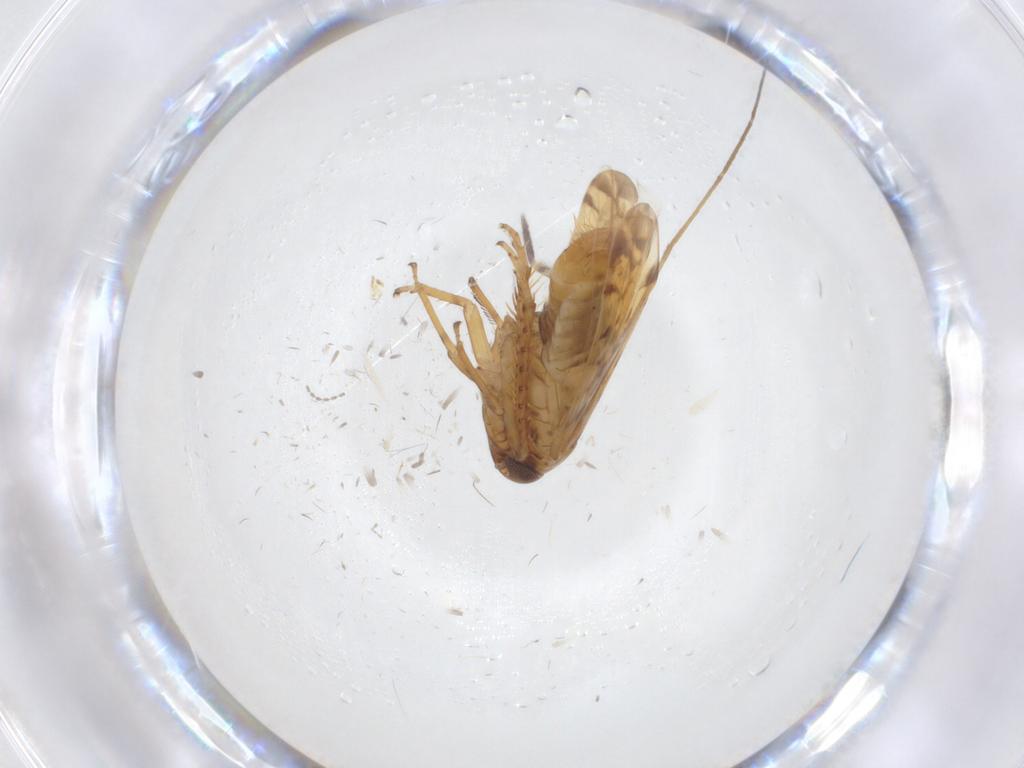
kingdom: Animalia
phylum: Arthropoda
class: Insecta
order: Hemiptera
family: Cicadellidae
